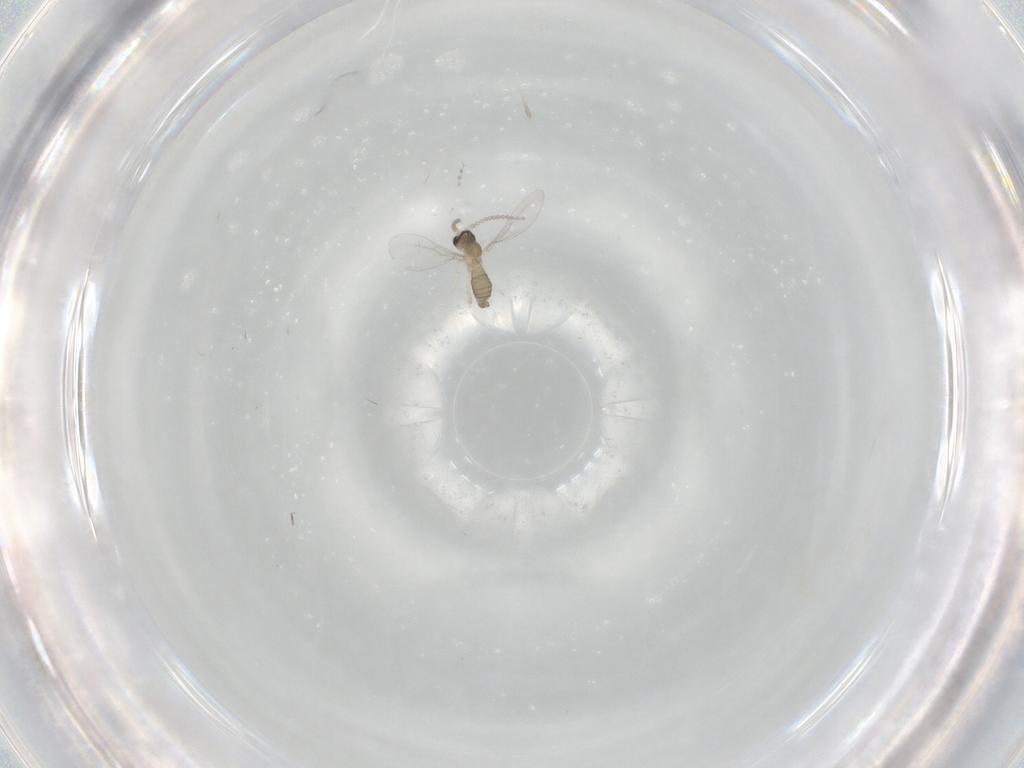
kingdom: Animalia
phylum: Arthropoda
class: Insecta
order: Diptera
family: Cecidomyiidae
